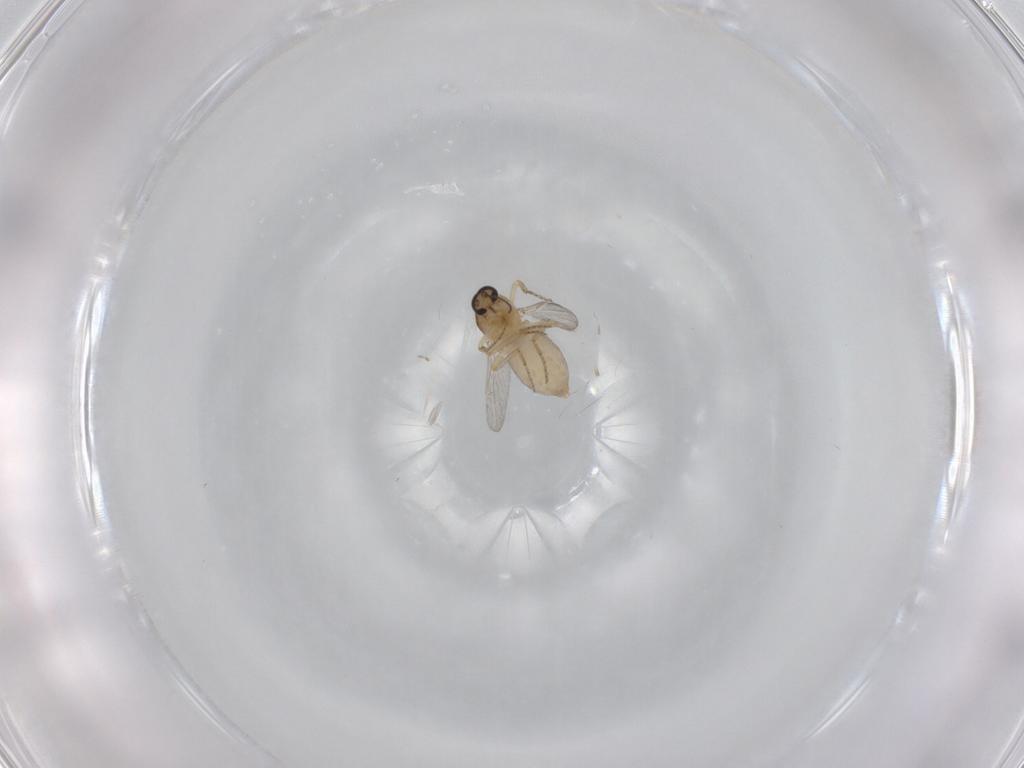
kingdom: Animalia
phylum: Arthropoda
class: Insecta
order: Diptera
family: Ceratopogonidae
